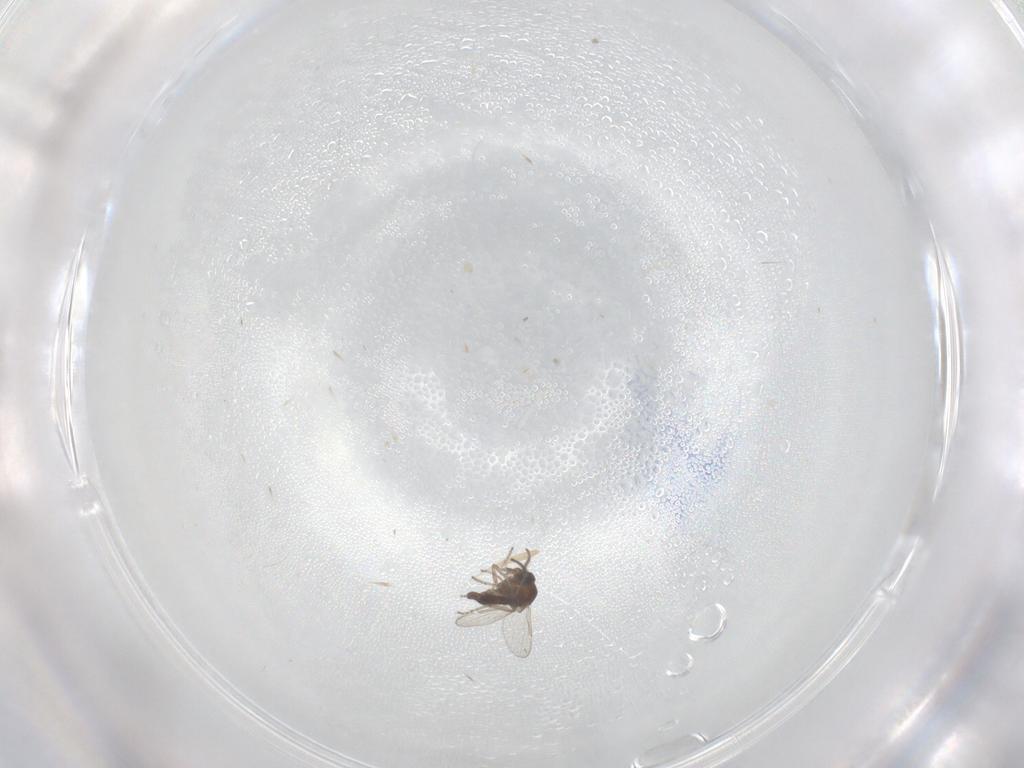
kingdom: Animalia
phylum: Arthropoda
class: Insecta
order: Diptera
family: Ceratopogonidae
